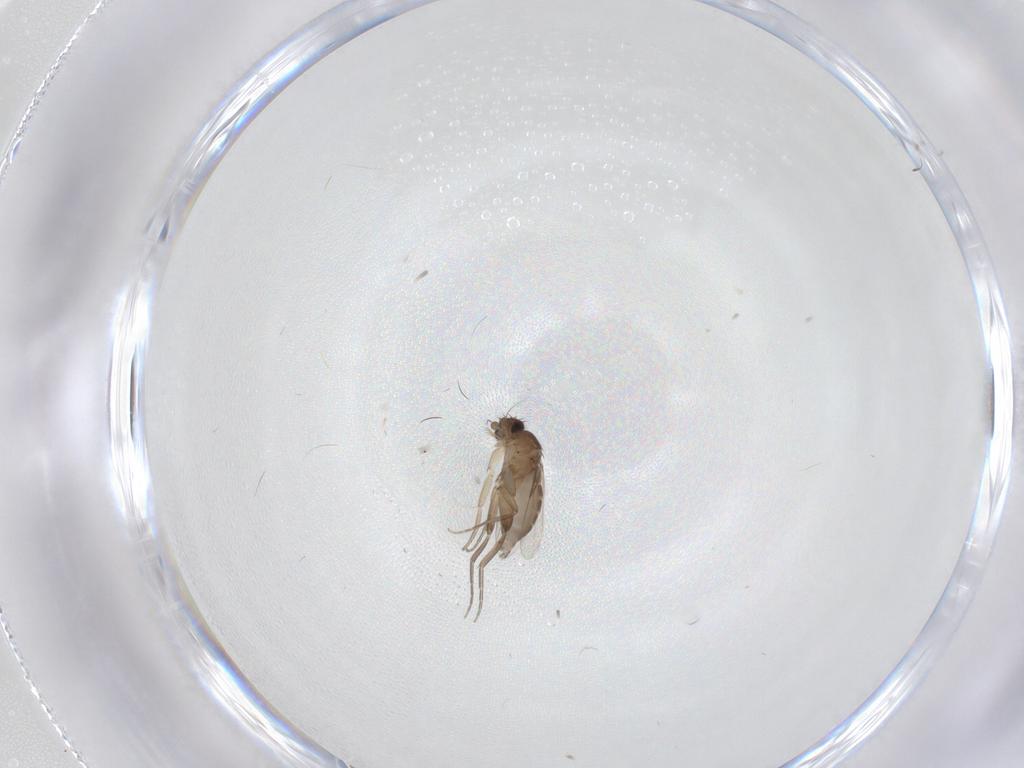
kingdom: Animalia
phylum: Arthropoda
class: Insecta
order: Diptera
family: Phoridae
